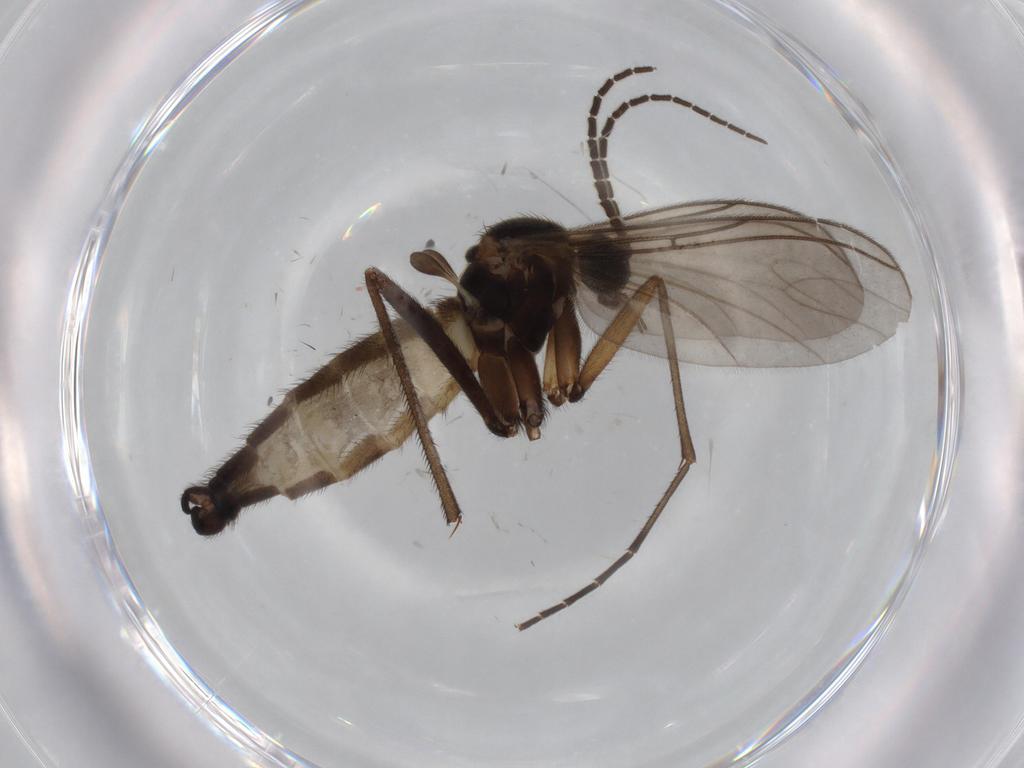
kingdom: Animalia
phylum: Arthropoda
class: Insecta
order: Diptera
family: Sciaridae
